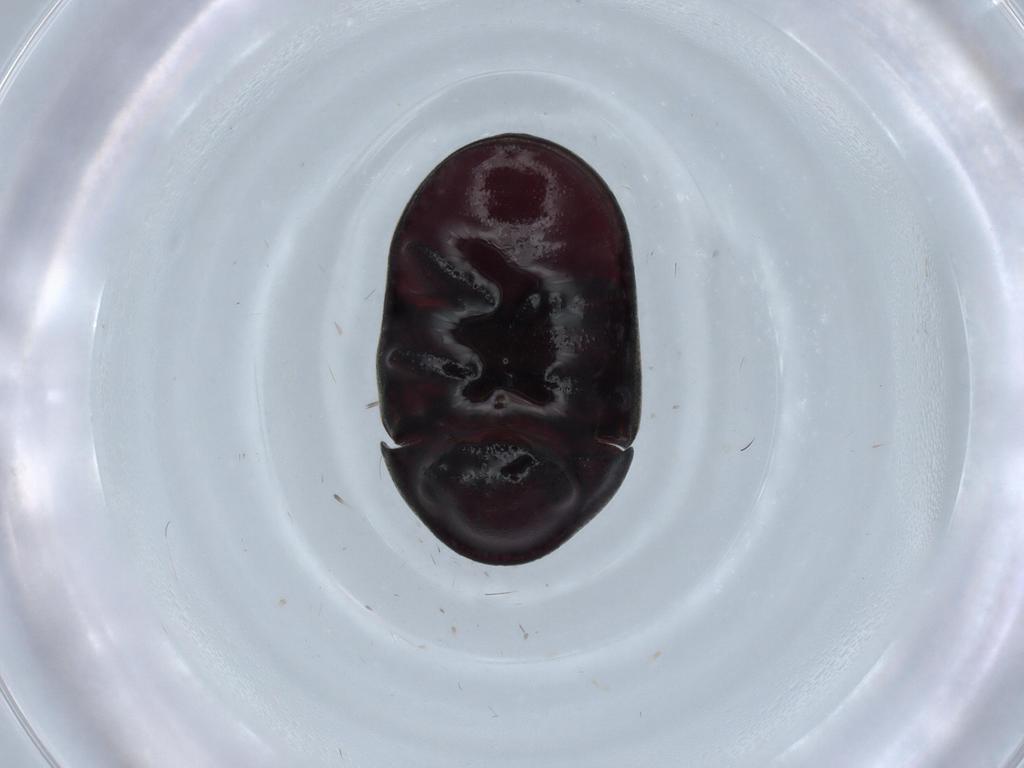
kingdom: Animalia
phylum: Arthropoda
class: Insecta
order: Coleoptera
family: Ptinidae
